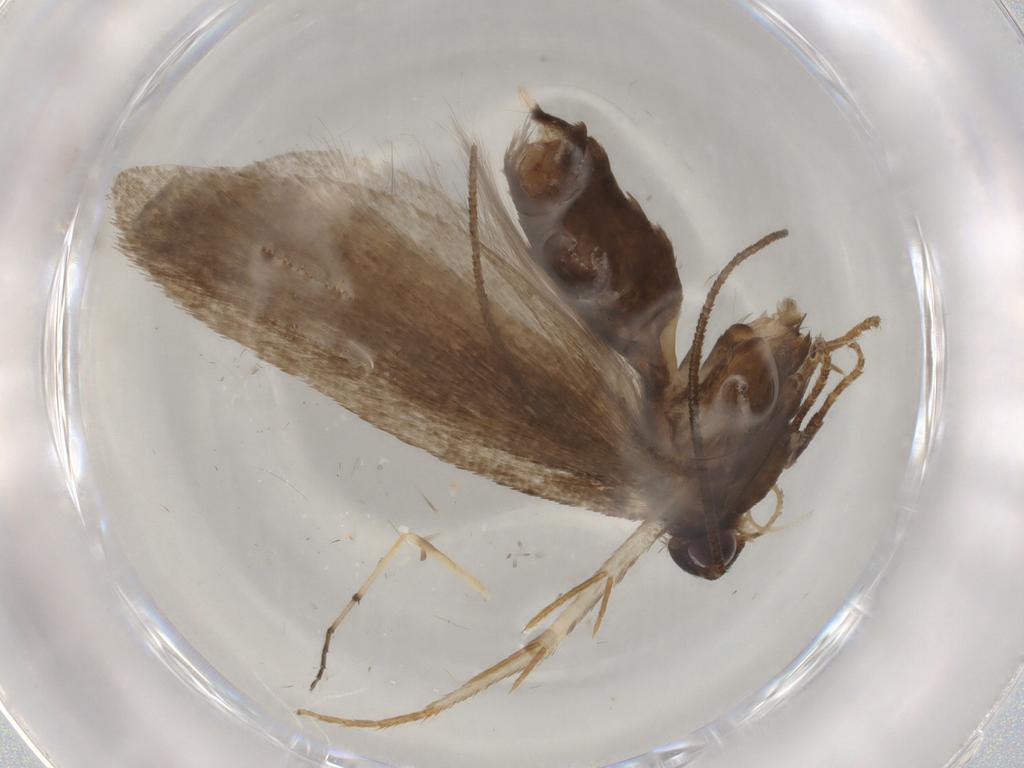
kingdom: Animalia
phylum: Arthropoda
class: Insecta
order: Lepidoptera
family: Gelechiidae
